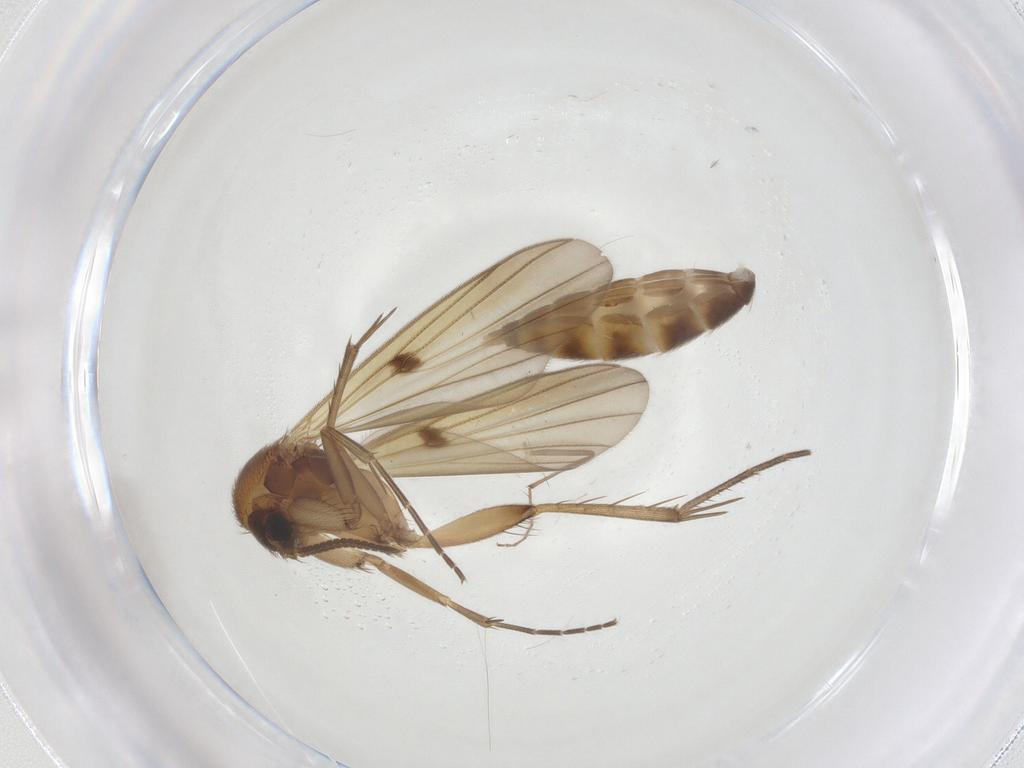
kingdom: Animalia
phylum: Arthropoda
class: Insecta
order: Diptera
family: Chironomidae
